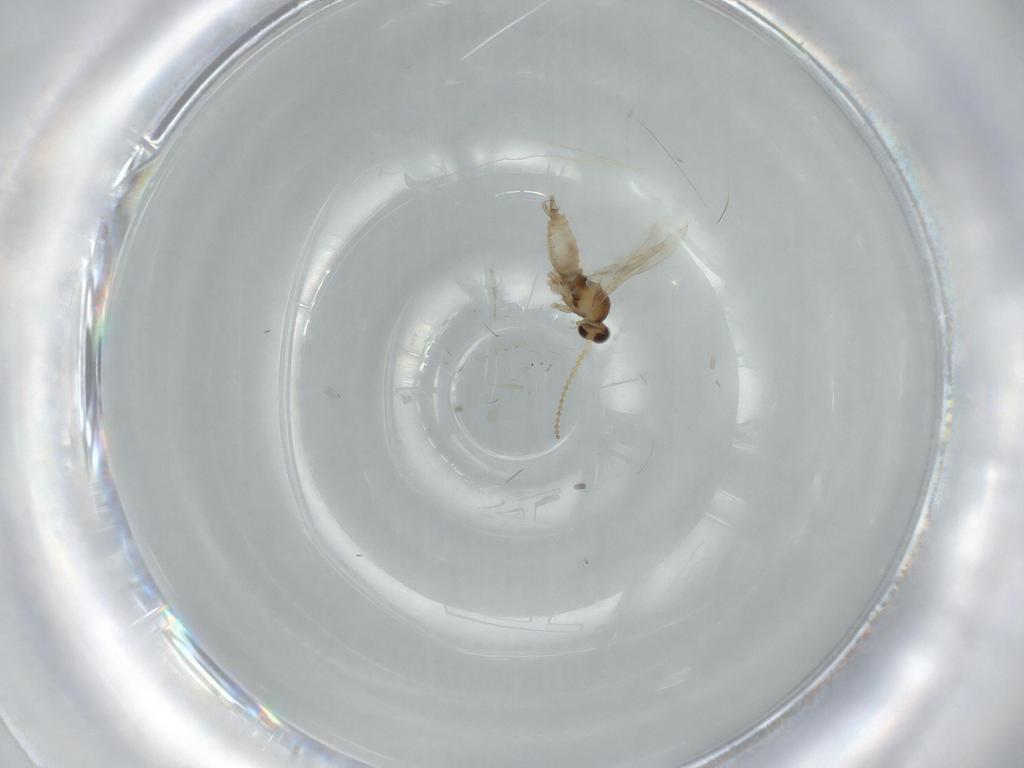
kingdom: Animalia
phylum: Arthropoda
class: Insecta
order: Diptera
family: Cecidomyiidae
